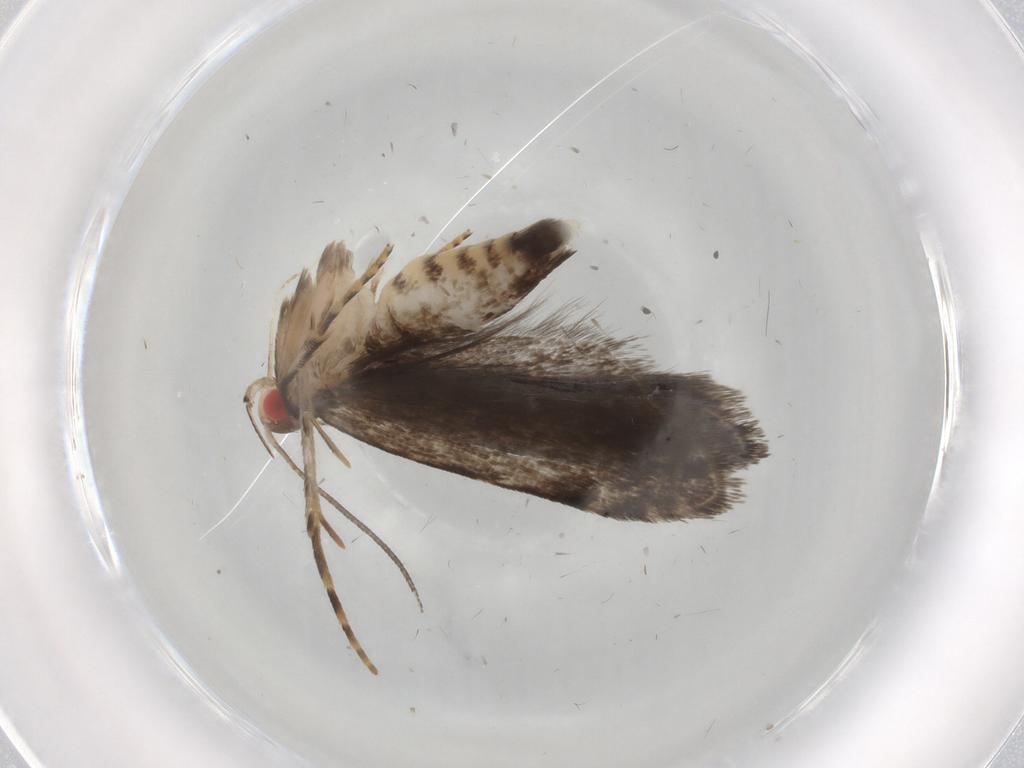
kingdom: Animalia
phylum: Arthropoda
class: Insecta
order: Lepidoptera
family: Gelechiidae
